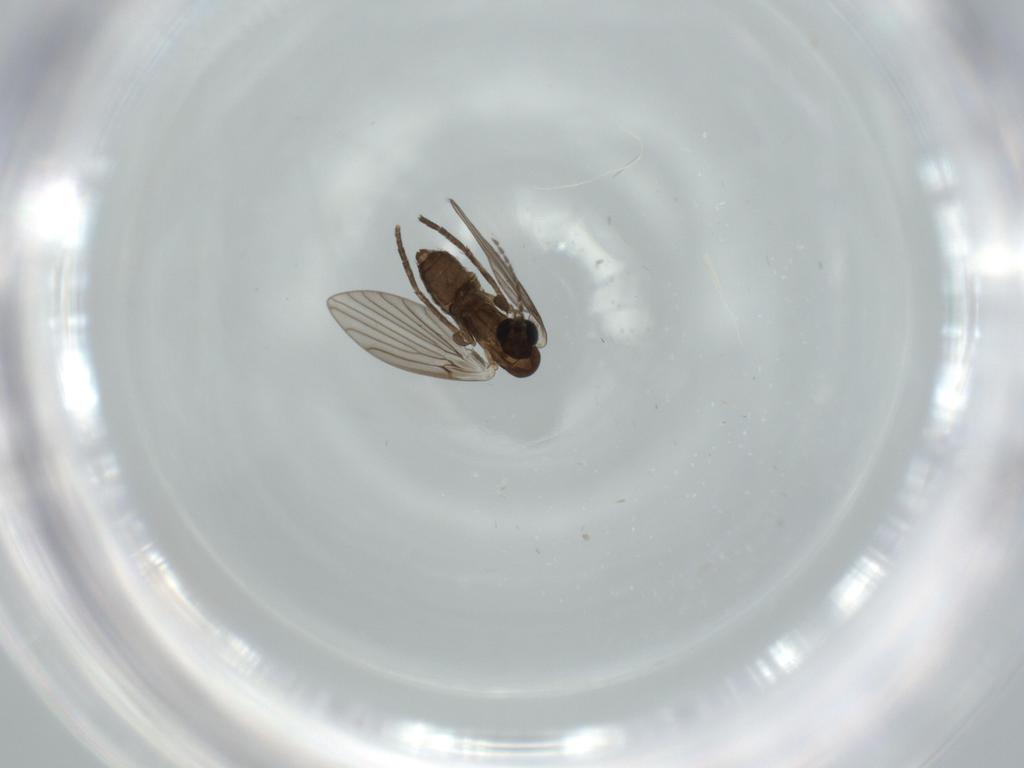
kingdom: Animalia
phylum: Arthropoda
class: Insecta
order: Diptera
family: Psychodidae
